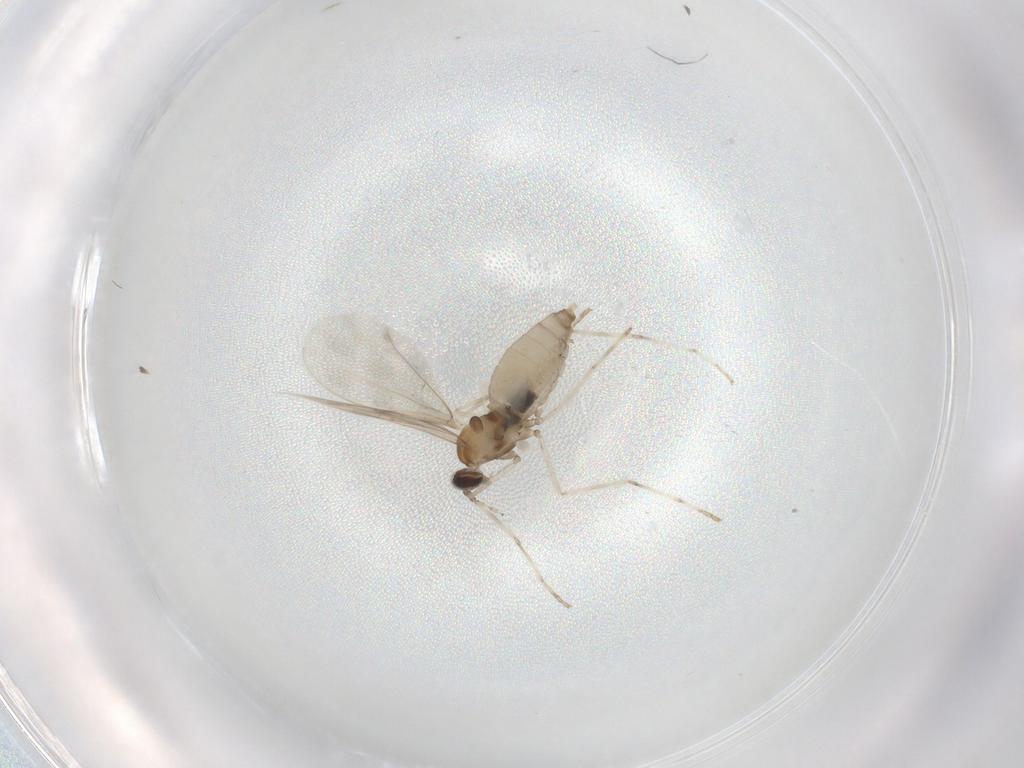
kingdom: Animalia
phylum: Arthropoda
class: Insecta
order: Diptera
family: Cecidomyiidae
